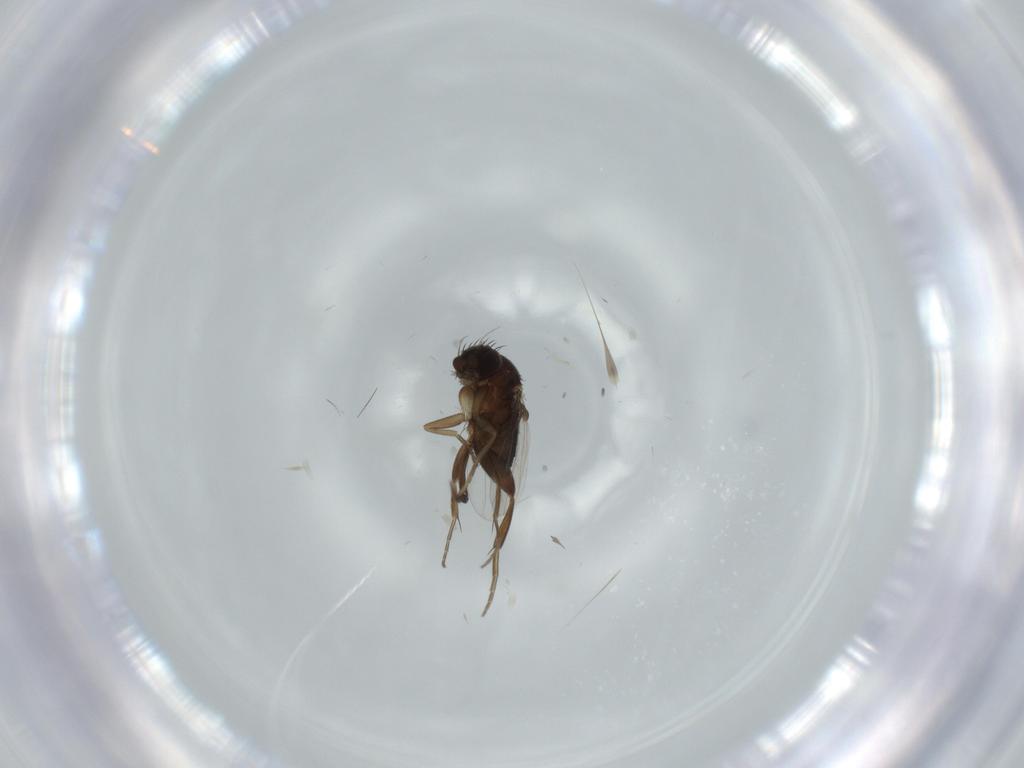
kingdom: Animalia
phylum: Arthropoda
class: Insecta
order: Diptera
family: Phoridae
